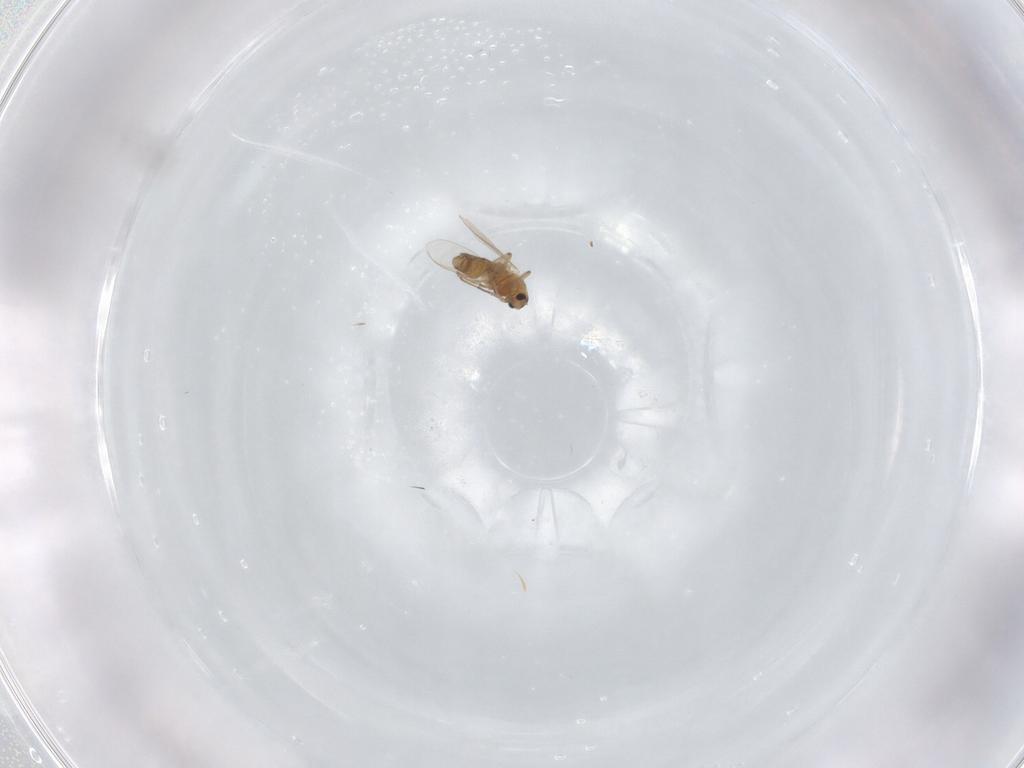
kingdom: Animalia
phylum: Arthropoda
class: Insecta
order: Diptera
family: Cecidomyiidae
